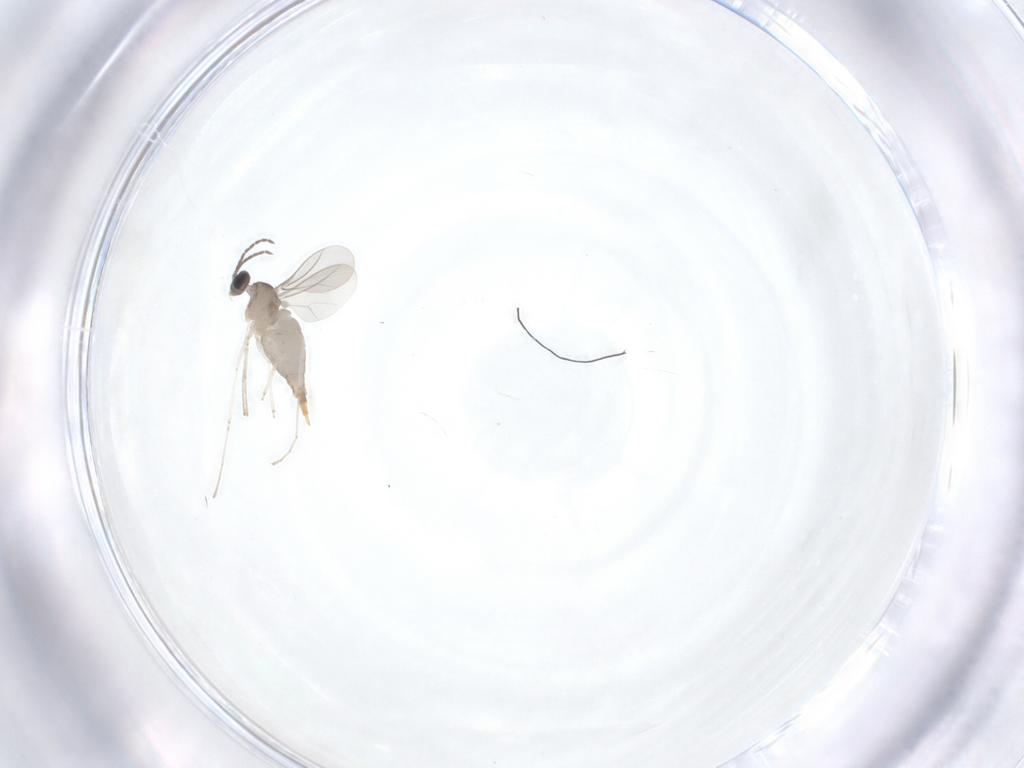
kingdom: Animalia
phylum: Arthropoda
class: Insecta
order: Diptera
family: Cecidomyiidae
